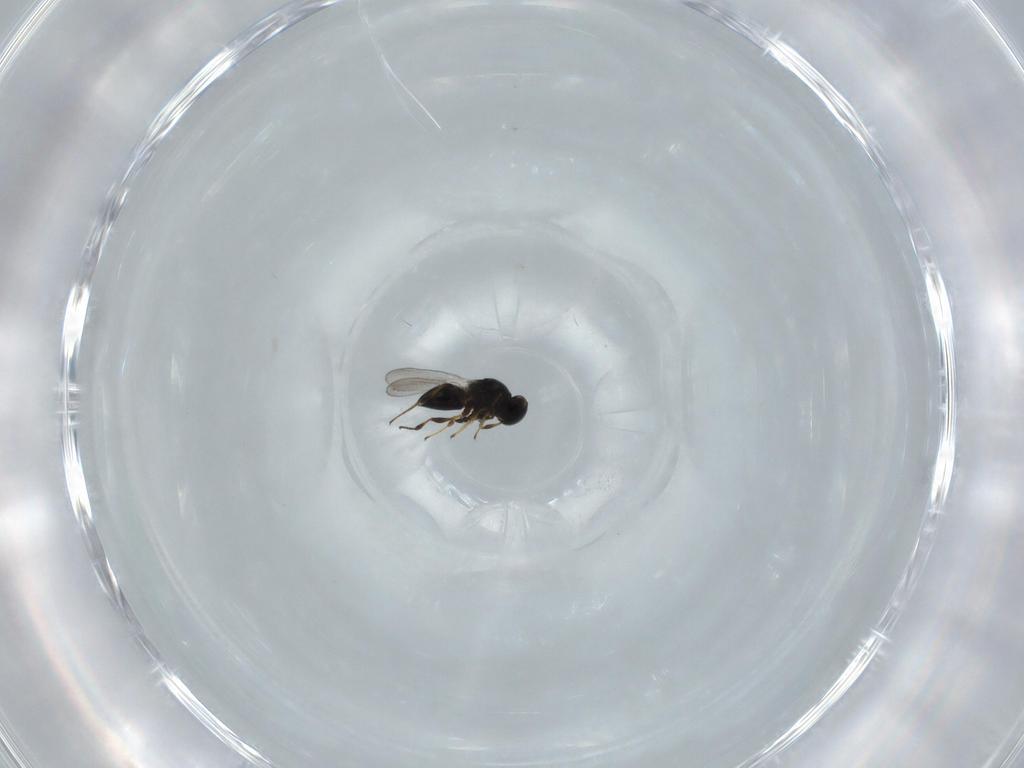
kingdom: Animalia
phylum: Arthropoda
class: Insecta
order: Hymenoptera
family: Platygastridae
